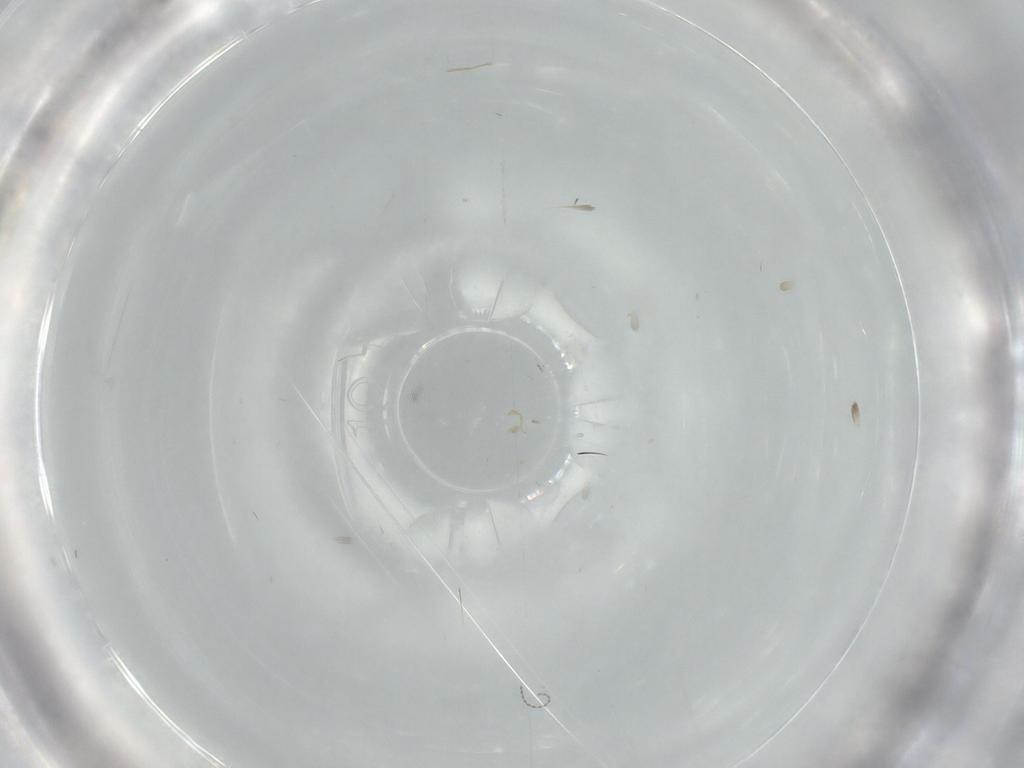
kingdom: Animalia
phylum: Arthropoda
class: Insecta
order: Diptera
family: Cecidomyiidae
